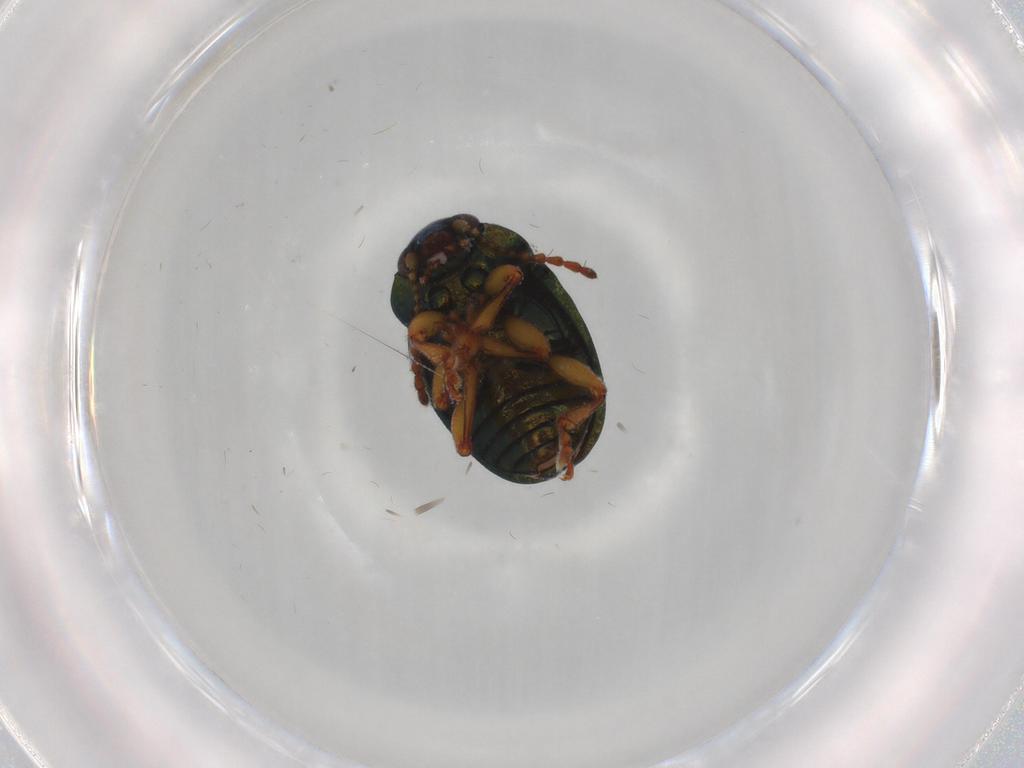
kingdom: Animalia
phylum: Arthropoda
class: Insecta
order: Coleoptera
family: Chrysomelidae
